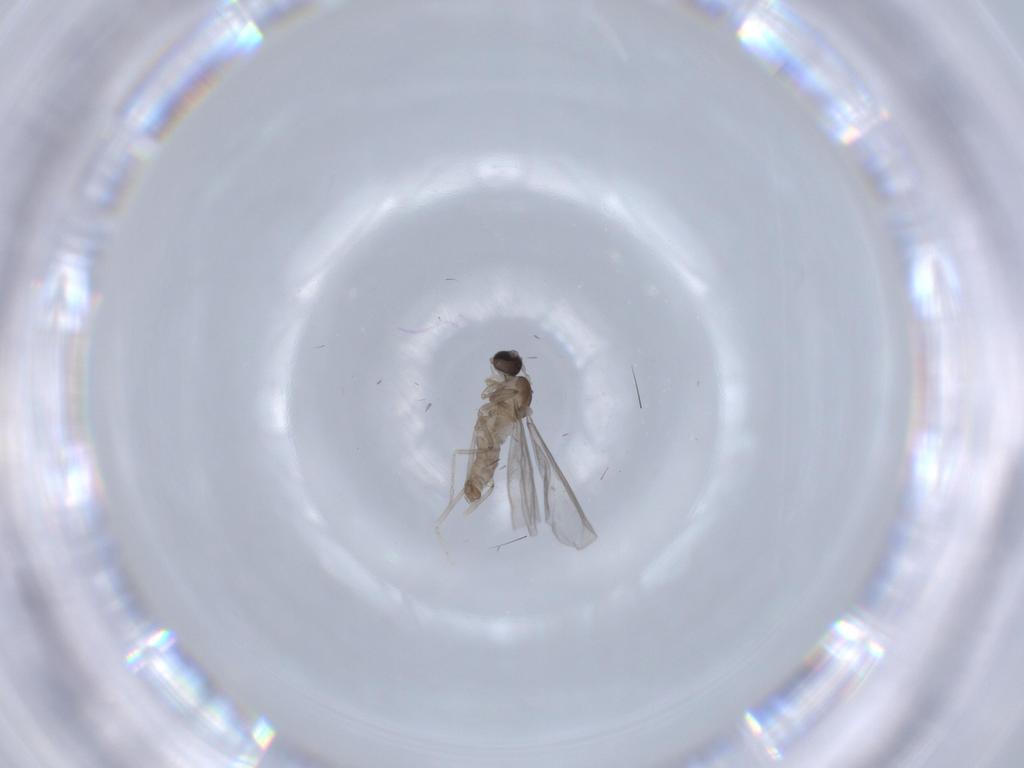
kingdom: Animalia
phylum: Arthropoda
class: Insecta
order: Diptera
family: Cecidomyiidae
